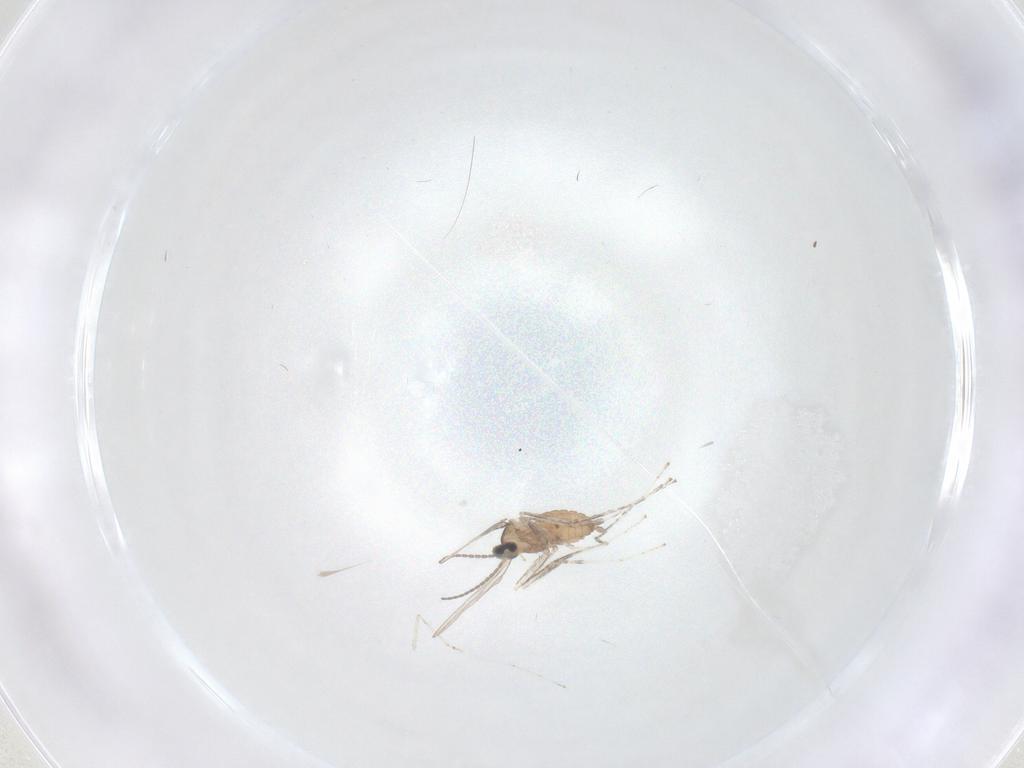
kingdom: Animalia
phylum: Arthropoda
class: Insecta
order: Diptera
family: Cecidomyiidae
